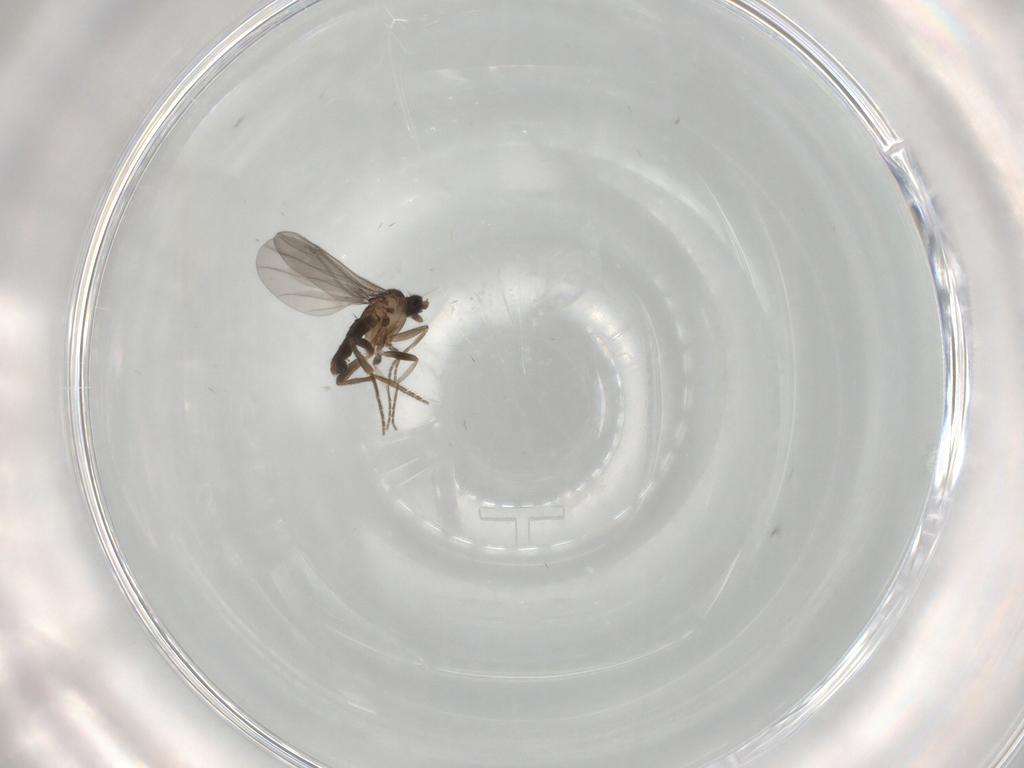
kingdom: Animalia
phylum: Arthropoda
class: Insecta
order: Diptera
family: Phoridae
